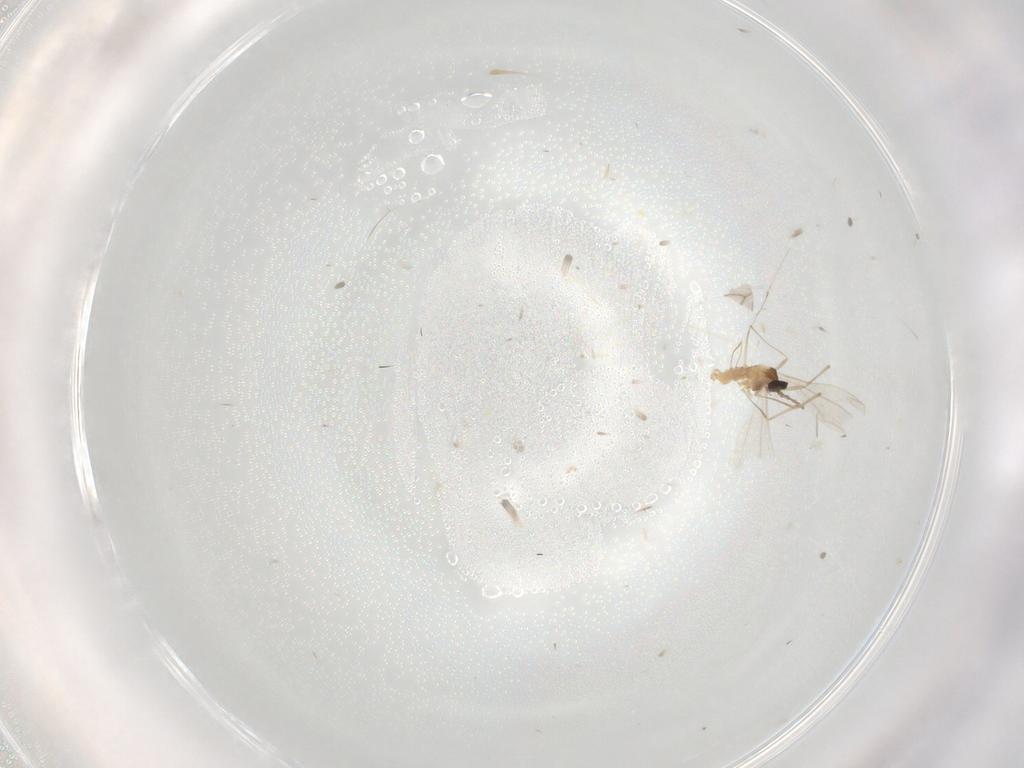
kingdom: Animalia
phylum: Arthropoda
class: Insecta
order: Diptera
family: Cecidomyiidae
